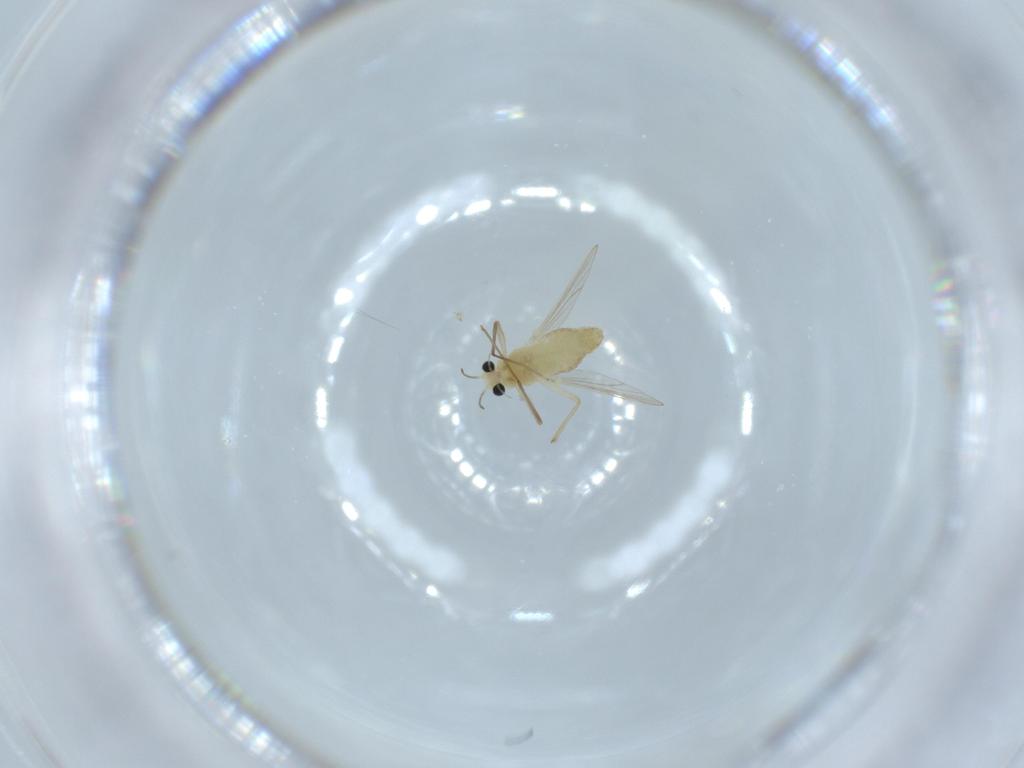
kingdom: Animalia
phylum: Arthropoda
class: Insecta
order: Diptera
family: Chironomidae
